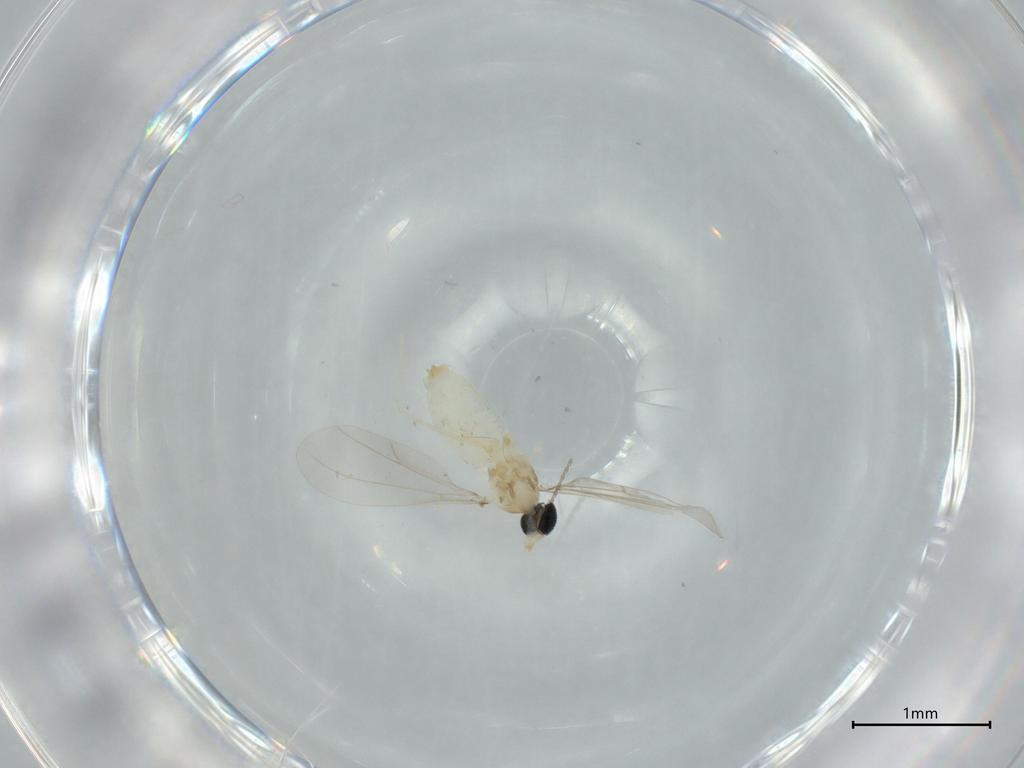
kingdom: Animalia
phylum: Arthropoda
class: Insecta
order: Diptera
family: Cecidomyiidae
